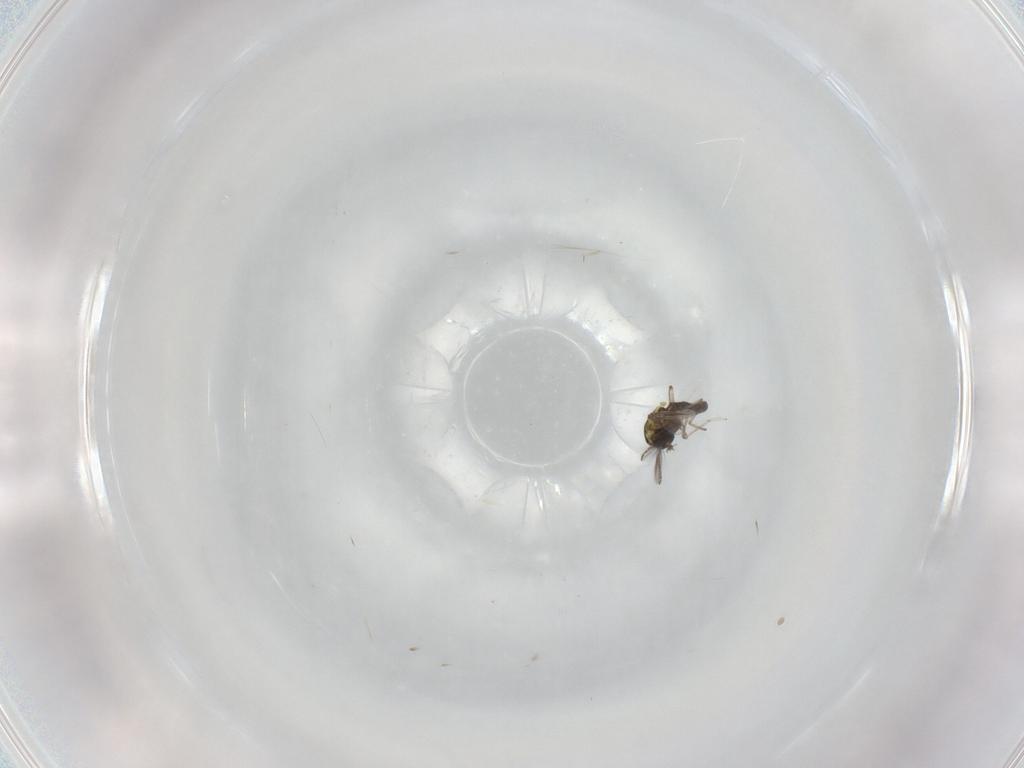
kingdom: Animalia
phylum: Arthropoda
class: Insecta
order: Diptera
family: Ceratopogonidae
